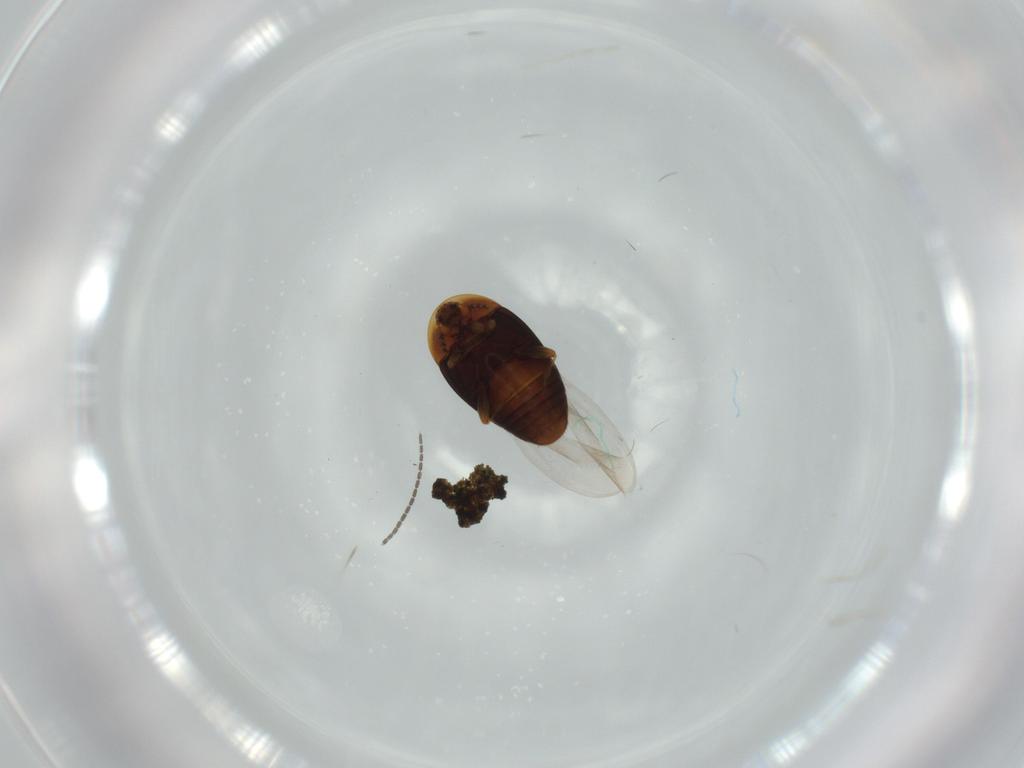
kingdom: Animalia
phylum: Arthropoda
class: Insecta
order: Coleoptera
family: Corylophidae
